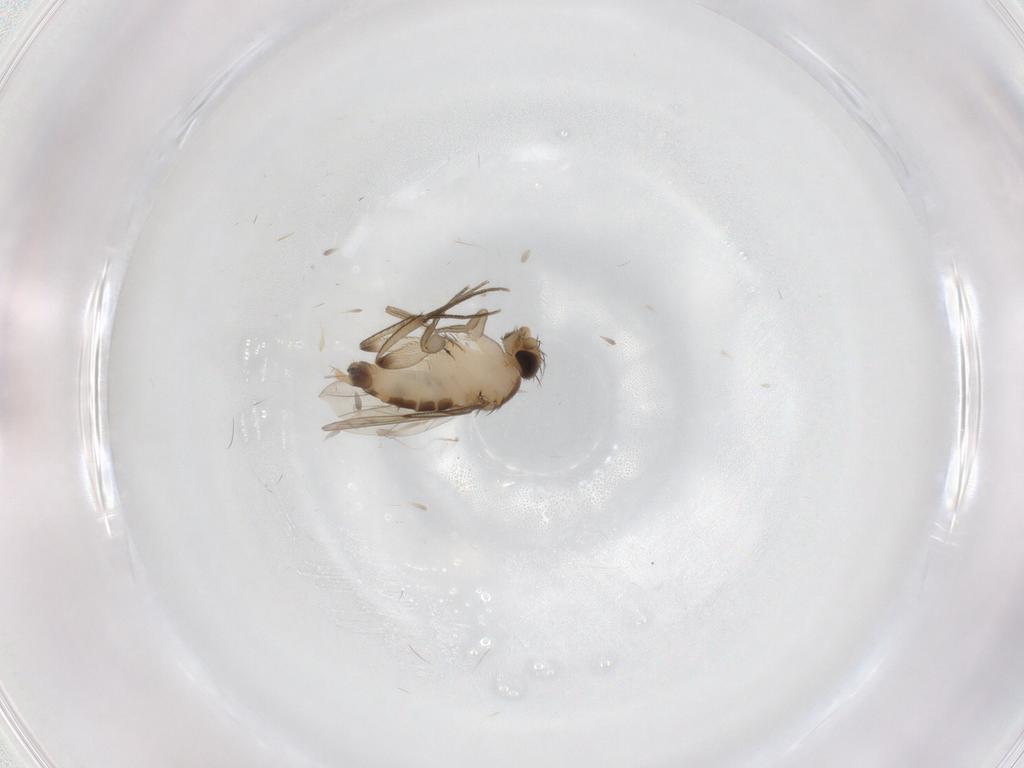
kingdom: Animalia
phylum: Arthropoda
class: Insecta
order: Diptera
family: Phoridae
